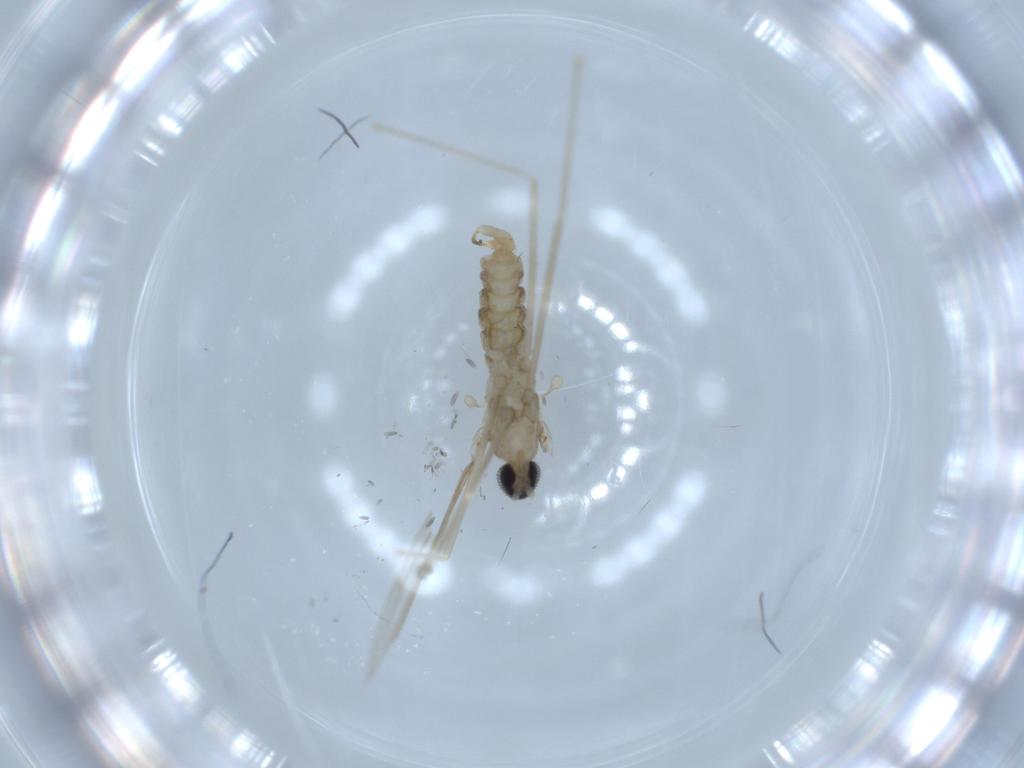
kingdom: Animalia
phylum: Arthropoda
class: Insecta
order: Diptera
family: Cecidomyiidae
